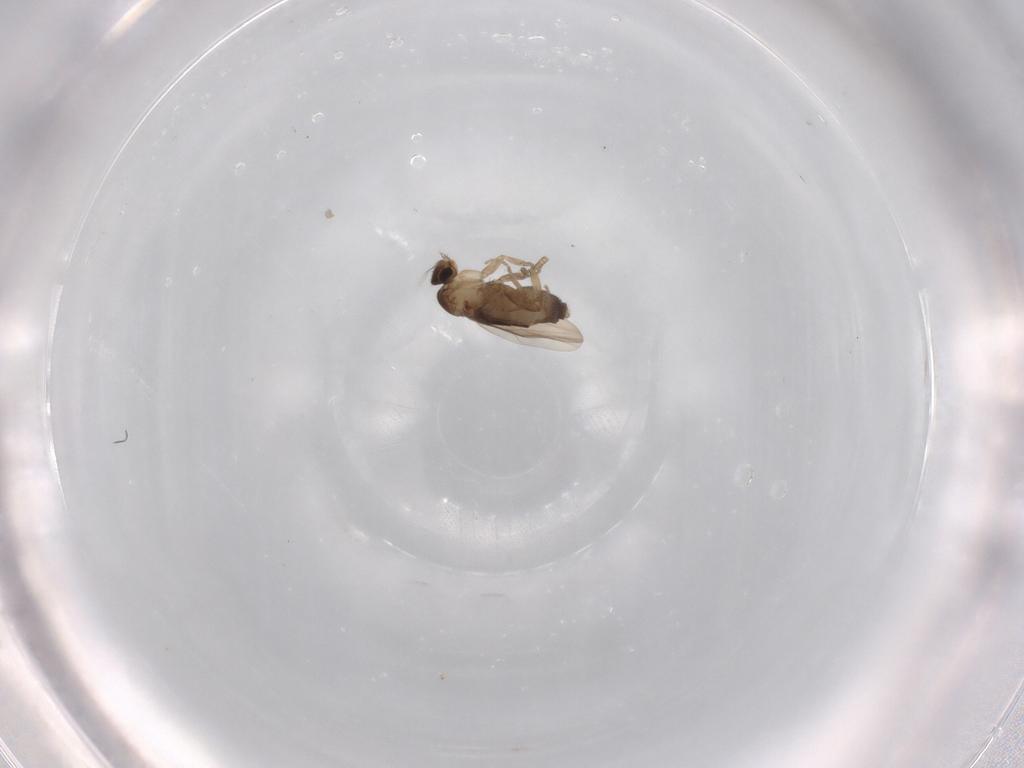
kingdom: Animalia
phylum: Arthropoda
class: Insecta
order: Diptera
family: Phoridae
